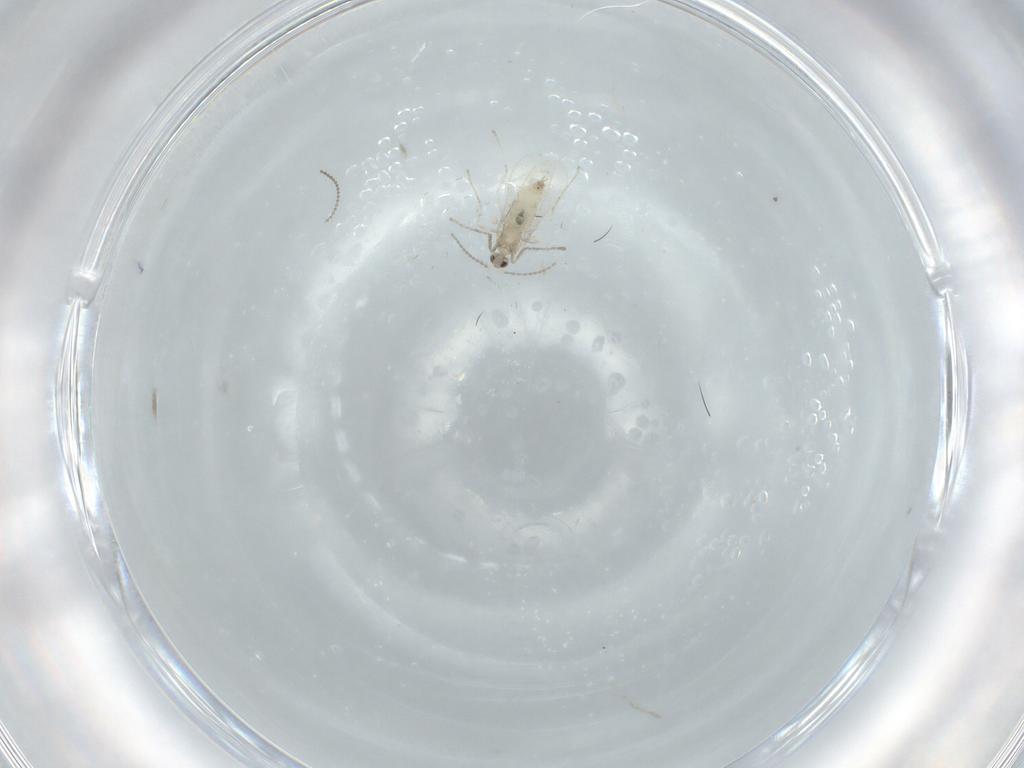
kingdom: Animalia
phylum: Arthropoda
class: Insecta
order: Diptera
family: Cecidomyiidae
